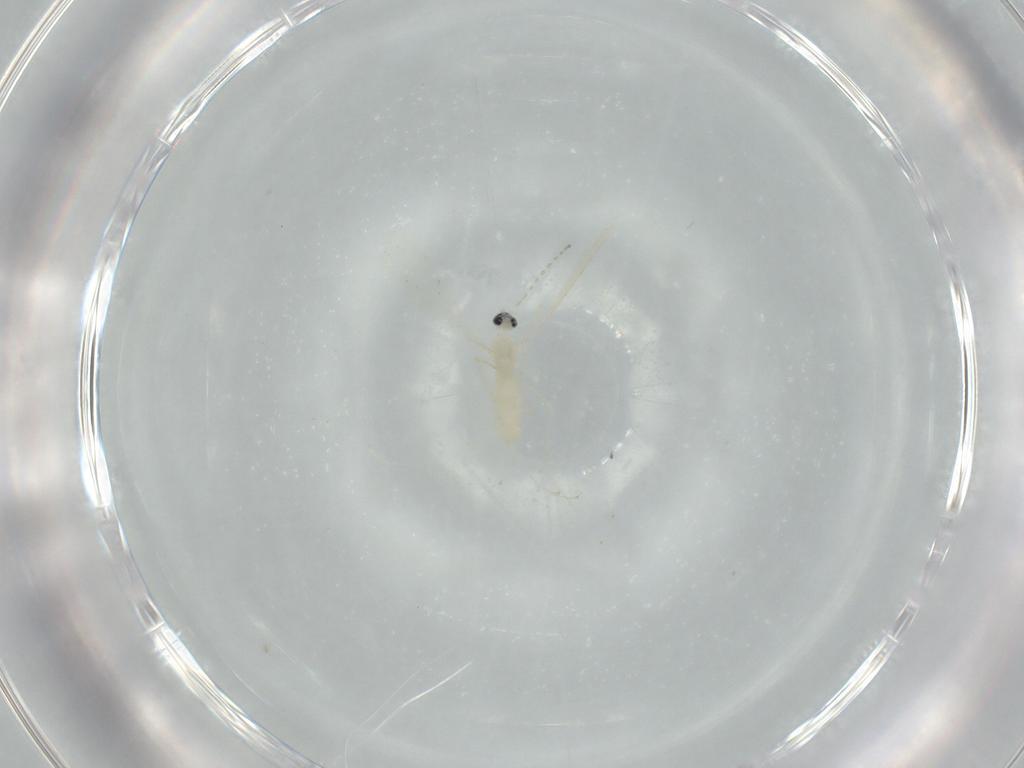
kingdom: Animalia
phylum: Arthropoda
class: Insecta
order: Diptera
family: Cecidomyiidae
